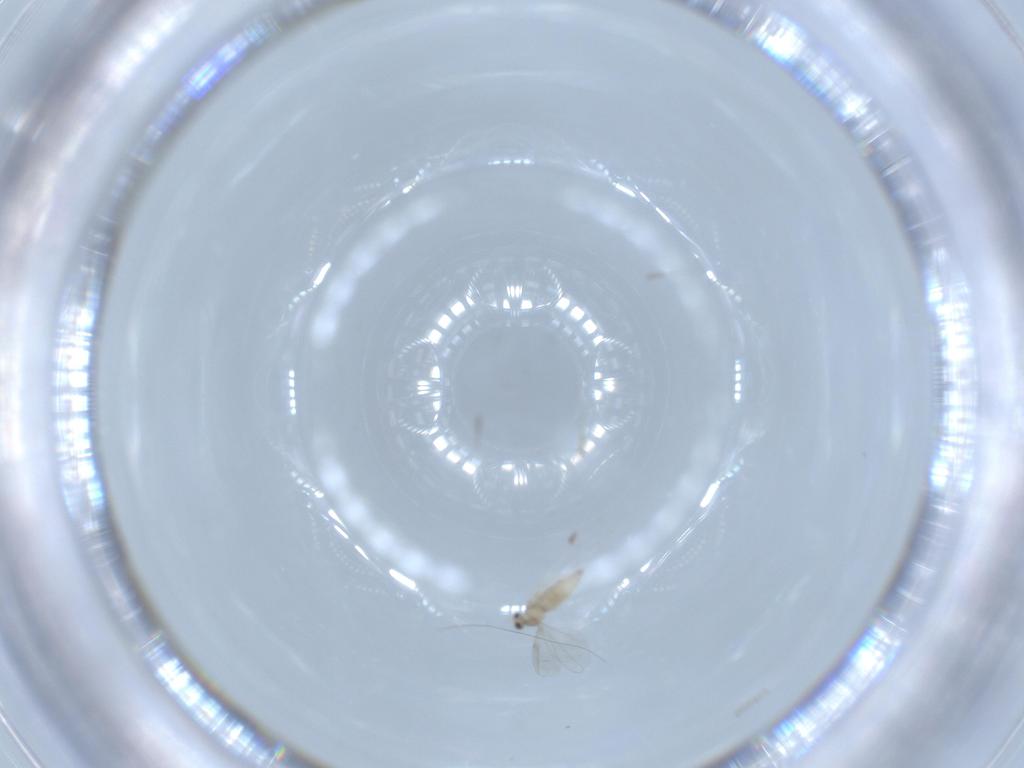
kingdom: Animalia
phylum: Arthropoda
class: Insecta
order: Diptera
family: Cecidomyiidae
